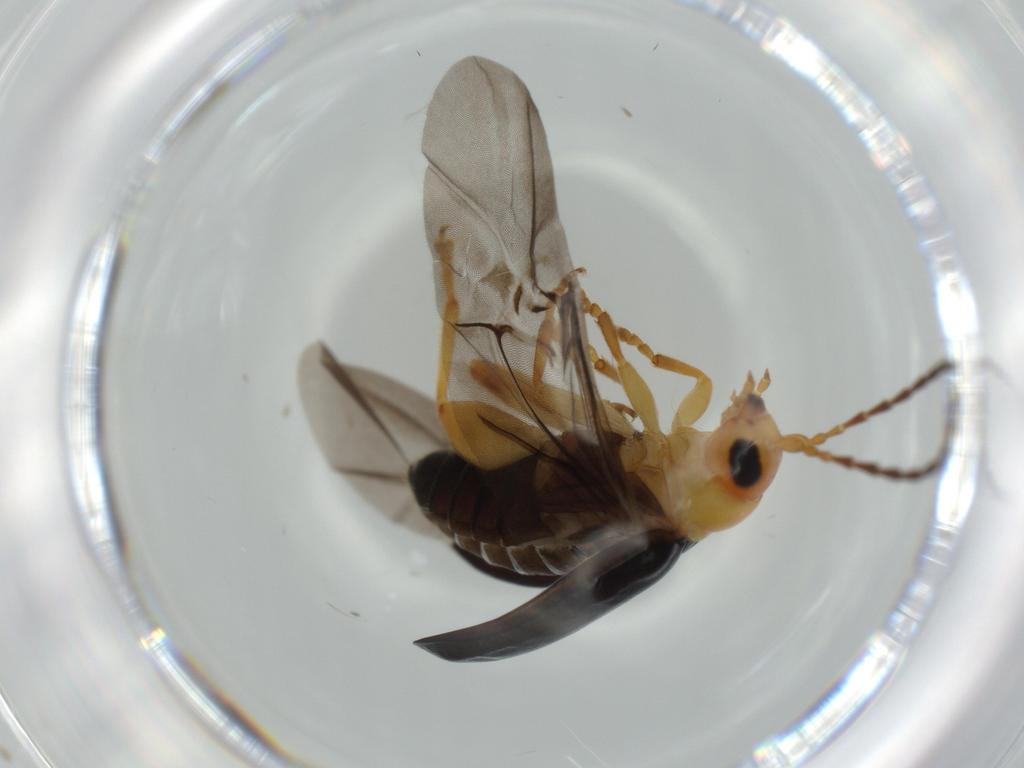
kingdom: Animalia
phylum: Arthropoda
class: Insecta
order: Coleoptera
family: Chrysomelidae
